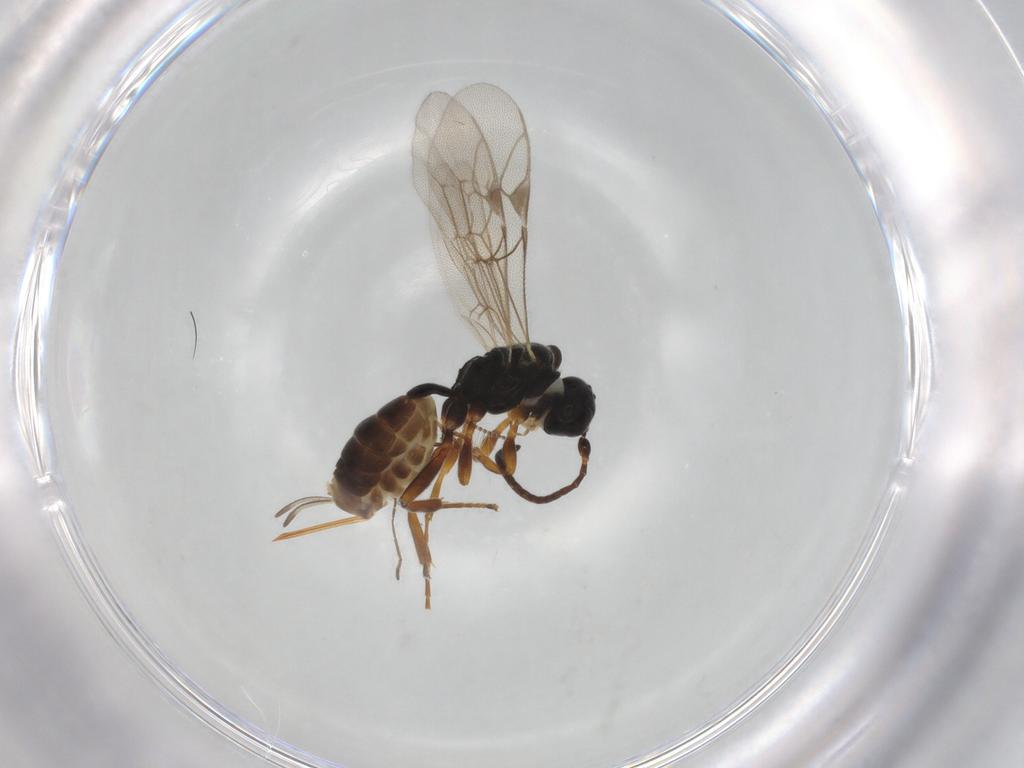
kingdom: Animalia
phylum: Arthropoda
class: Insecta
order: Hymenoptera
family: Ichneumonidae
